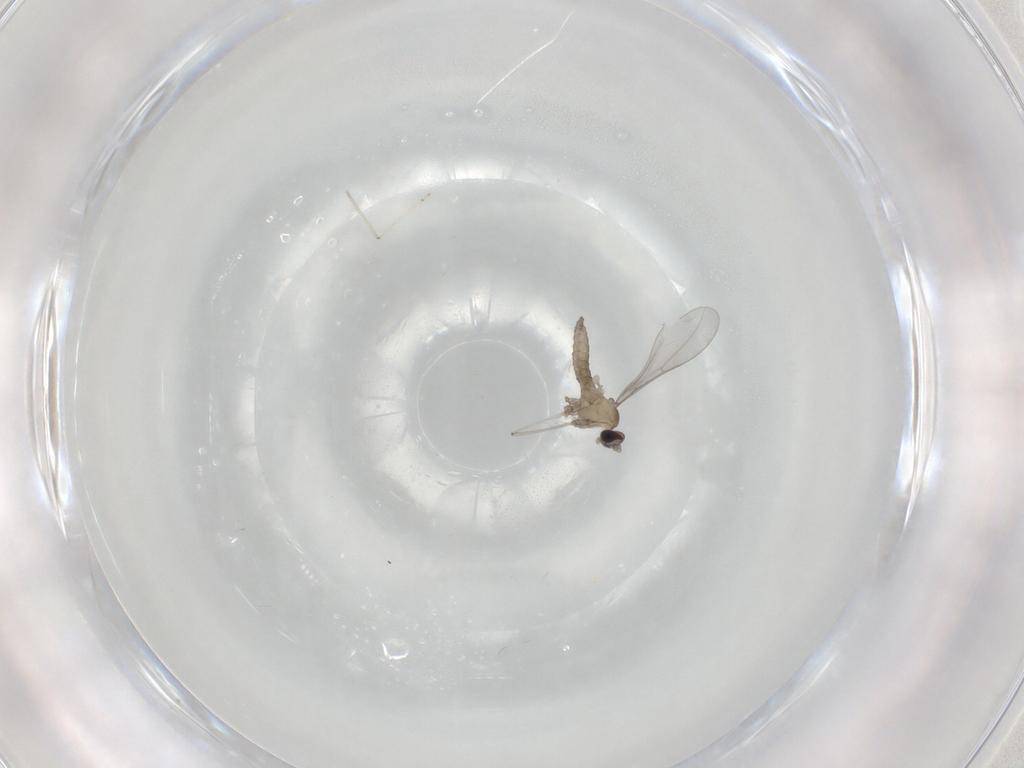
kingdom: Animalia
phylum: Arthropoda
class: Insecta
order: Diptera
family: Cecidomyiidae
